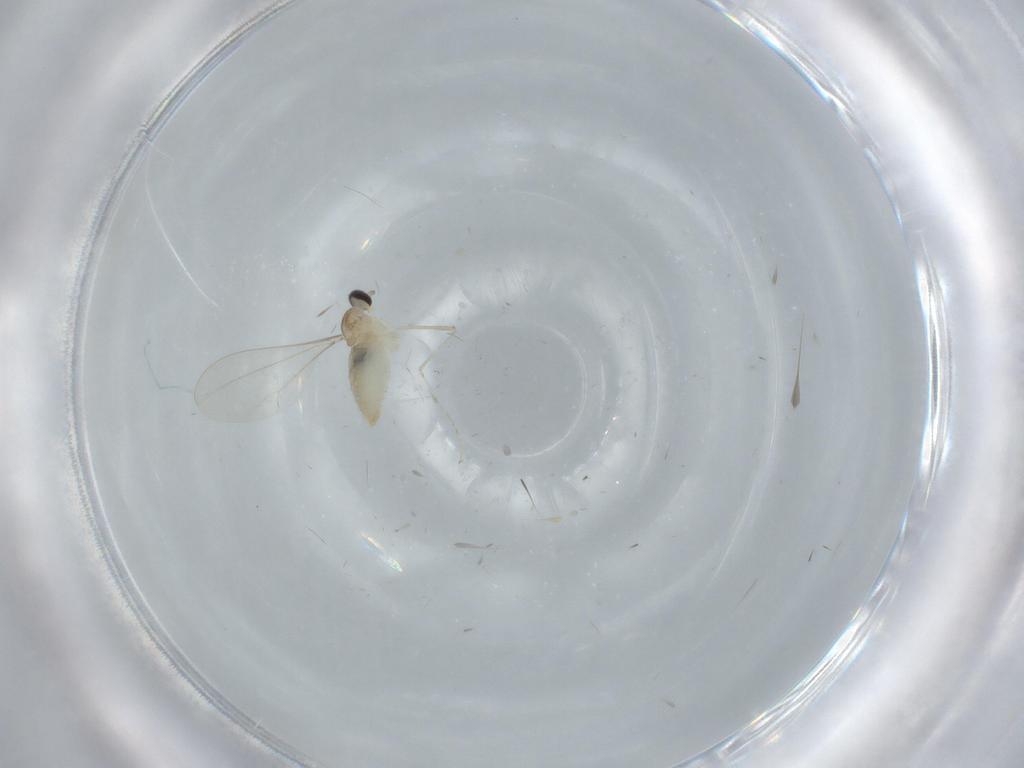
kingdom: Animalia
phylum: Arthropoda
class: Insecta
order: Diptera
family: Cecidomyiidae
